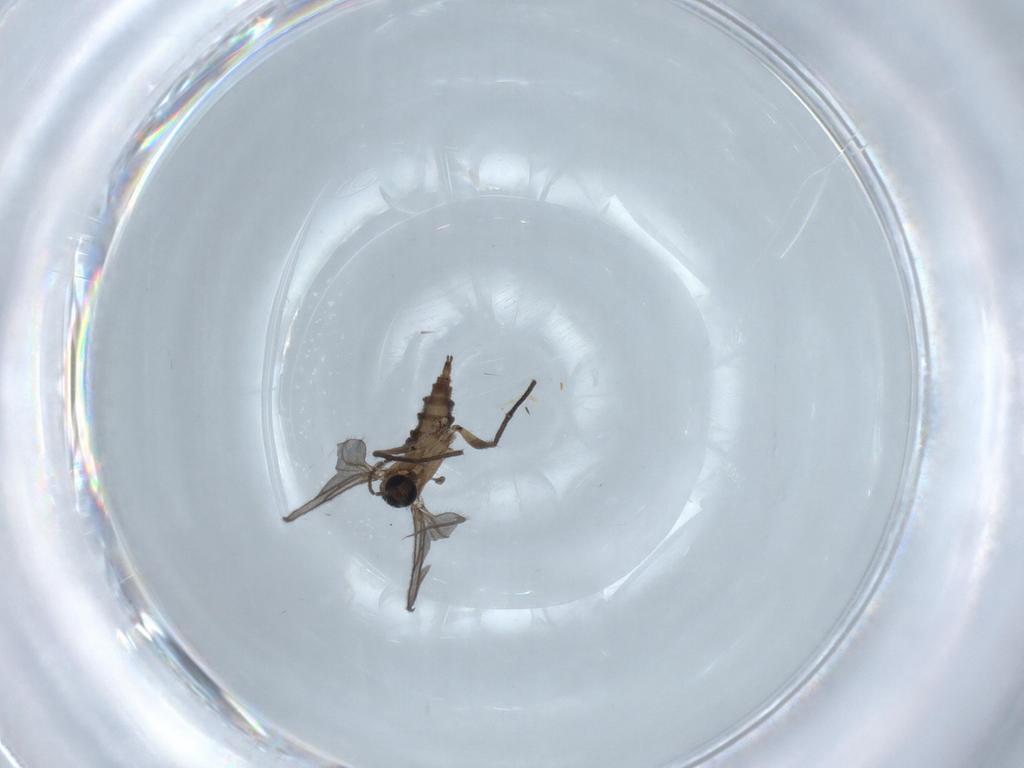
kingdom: Animalia
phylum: Arthropoda
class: Insecta
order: Diptera
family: Sciaridae
